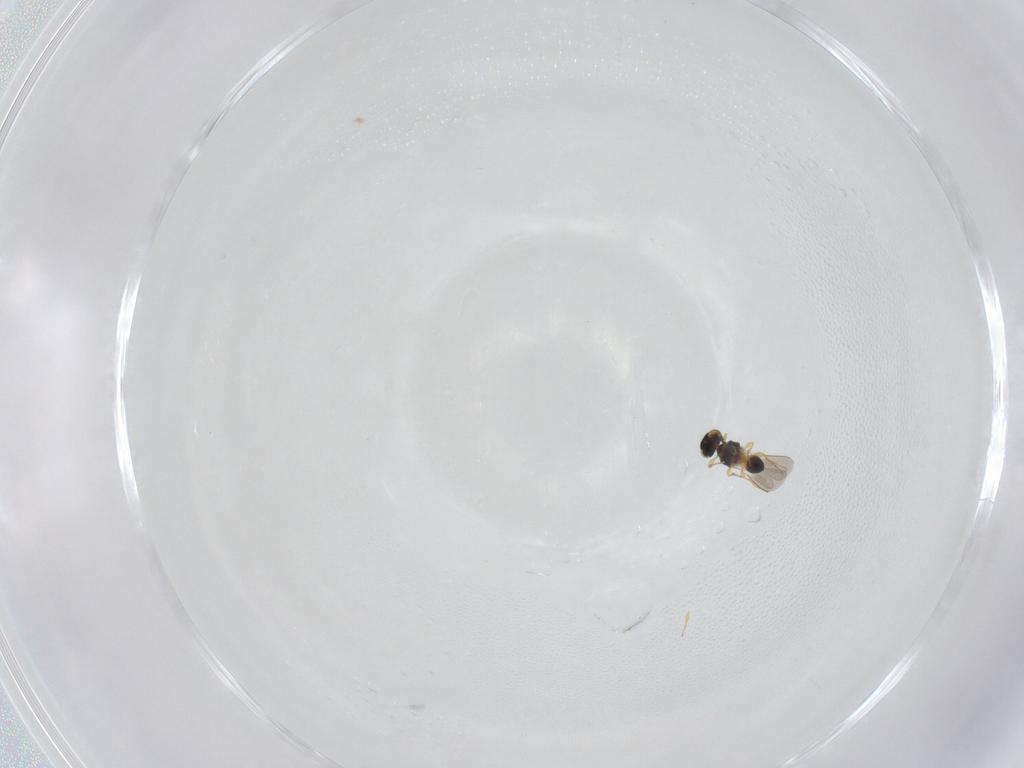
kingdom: Animalia
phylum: Arthropoda
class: Insecta
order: Hymenoptera
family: Platygastridae
